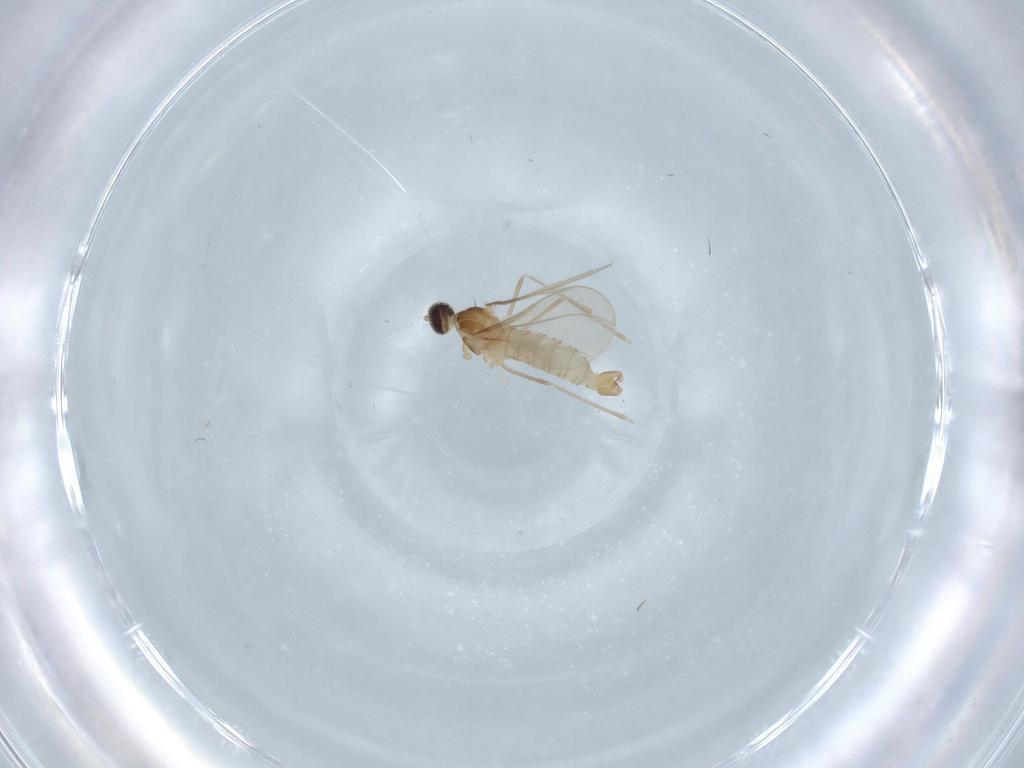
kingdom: Animalia
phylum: Arthropoda
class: Insecta
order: Diptera
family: Cecidomyiidae
